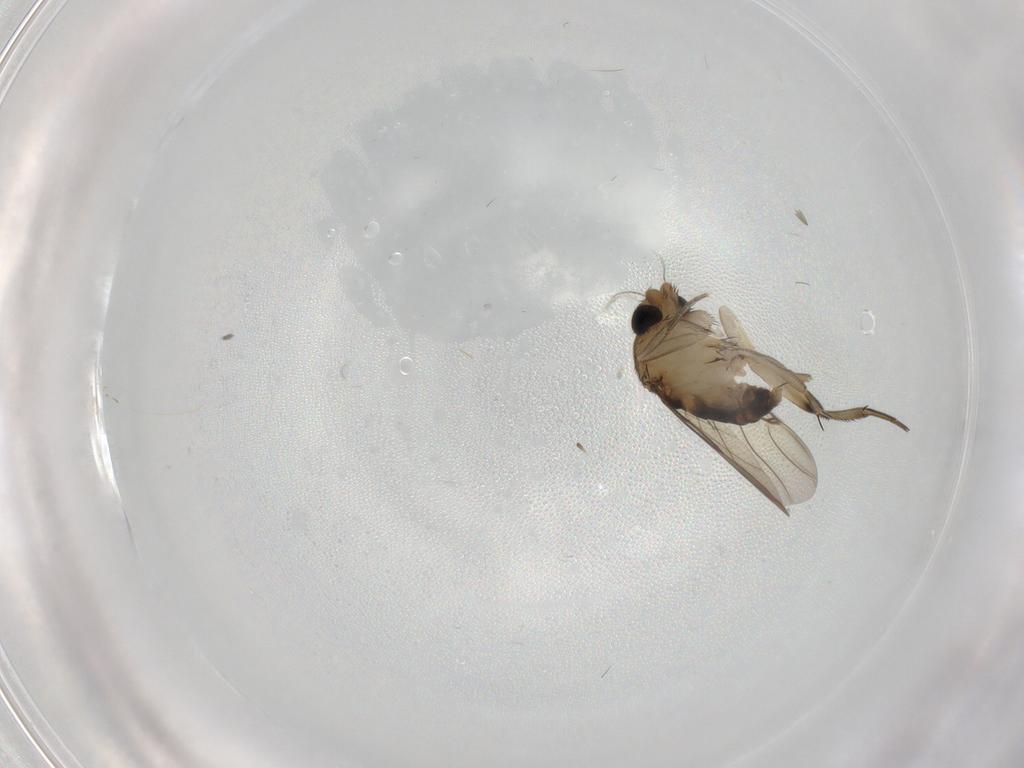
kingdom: Animalia
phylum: Arthropoda
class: Insecta
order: Diptera
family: Phoridae
